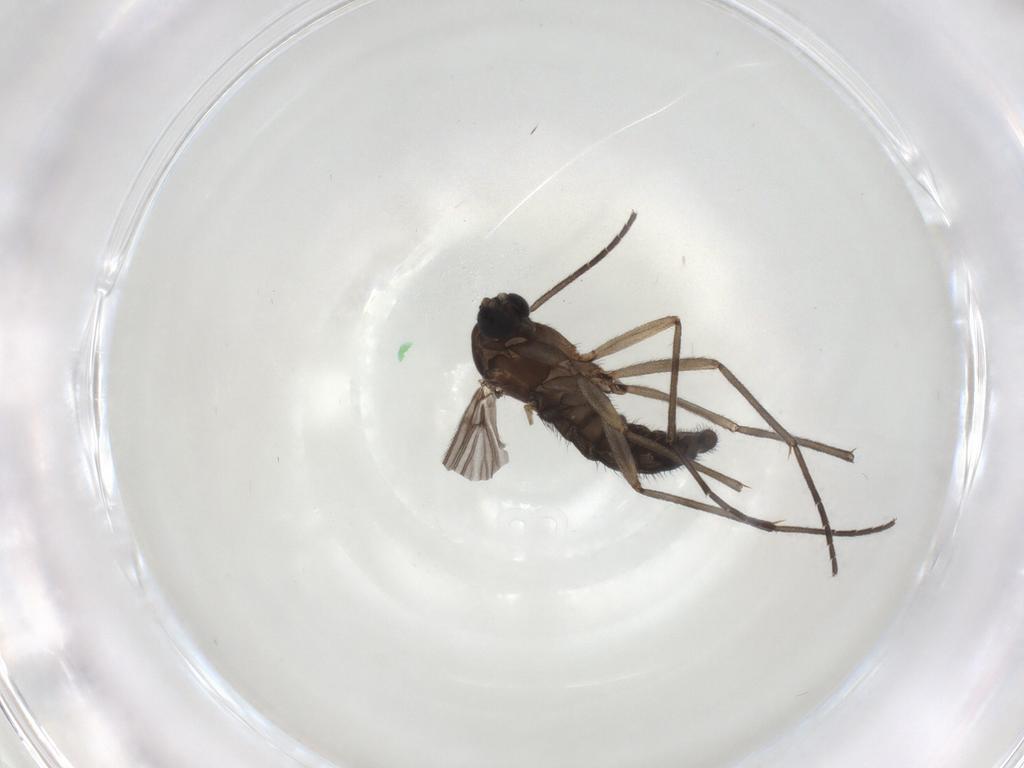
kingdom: Animalia
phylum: Arthropoda
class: Insecta
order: Diptera
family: Sciaridae
